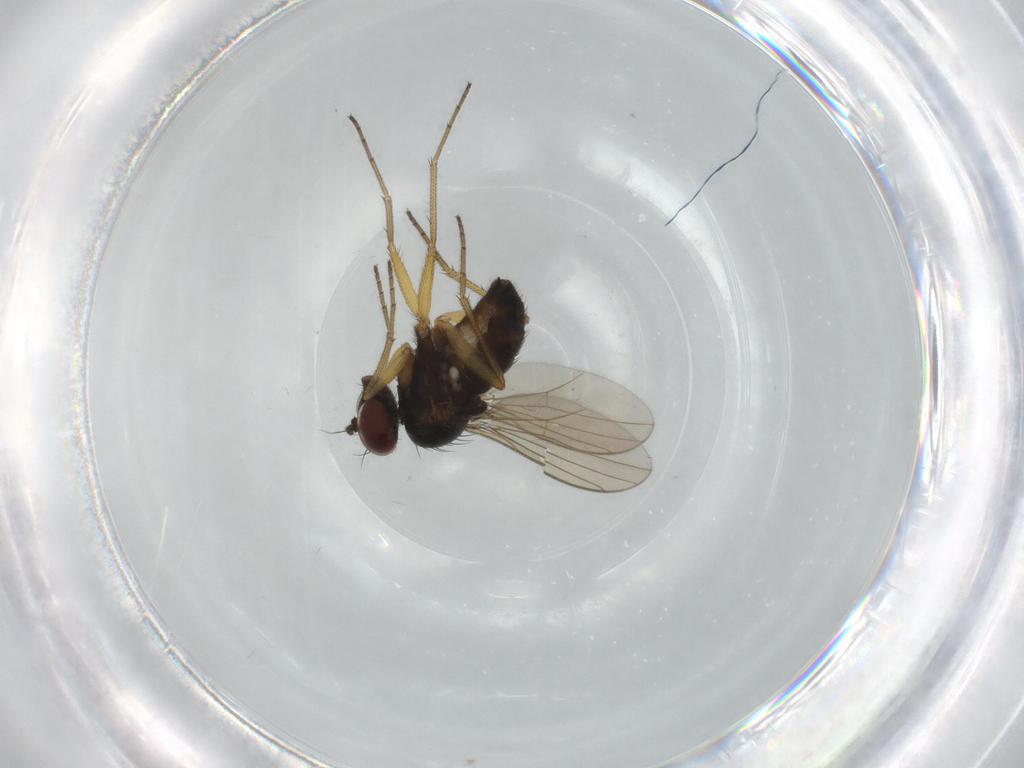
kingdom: Animalia
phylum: Arthropoda
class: Insecta
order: Diptera
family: Dolichopodidae
